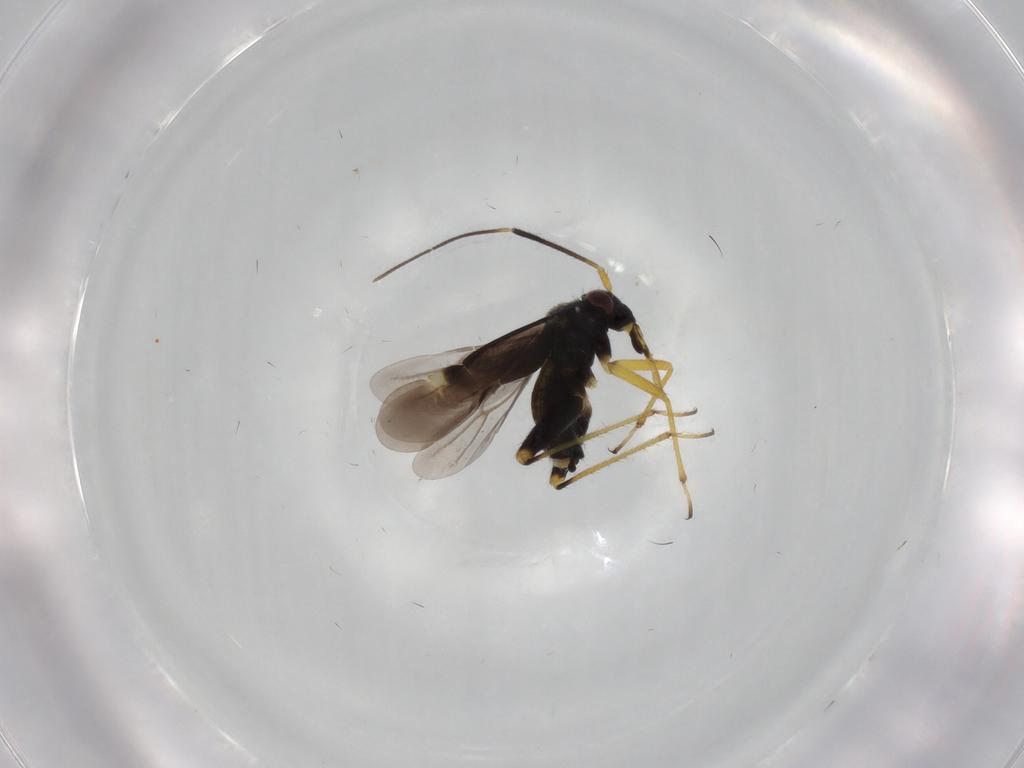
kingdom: Animalia
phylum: Arthropoda
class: Insecta
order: Hemiptera
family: Miridae
